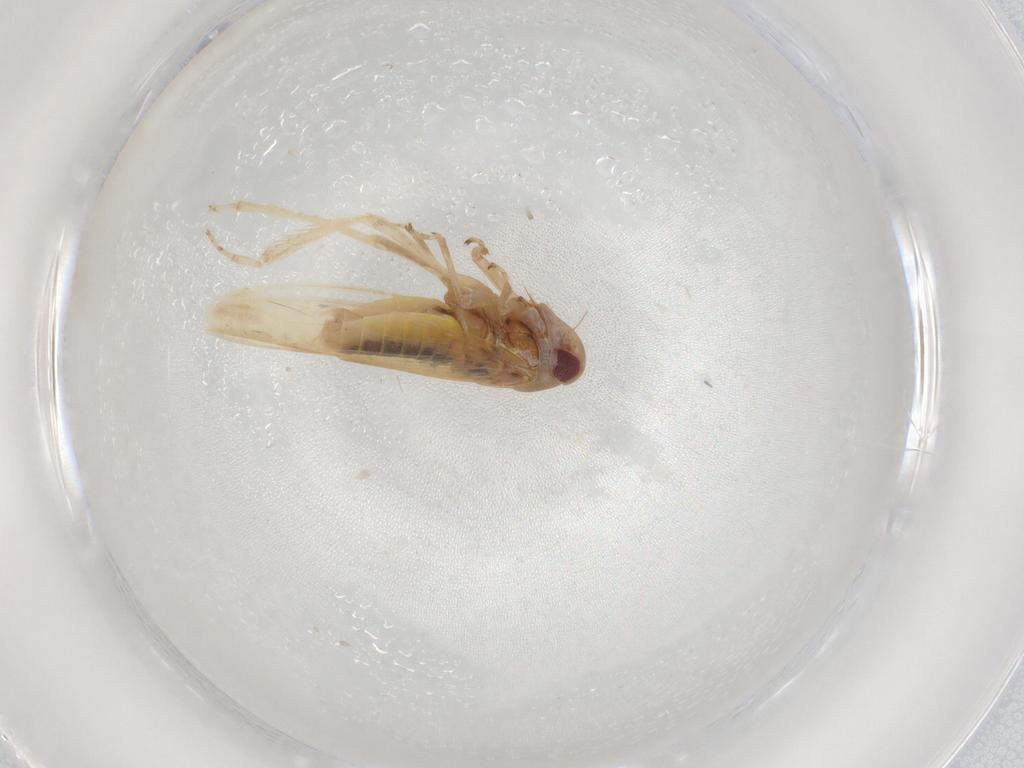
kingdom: Animalia
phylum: Arthropoda
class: Insecta
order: Hemiptera
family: Cicadellidae
